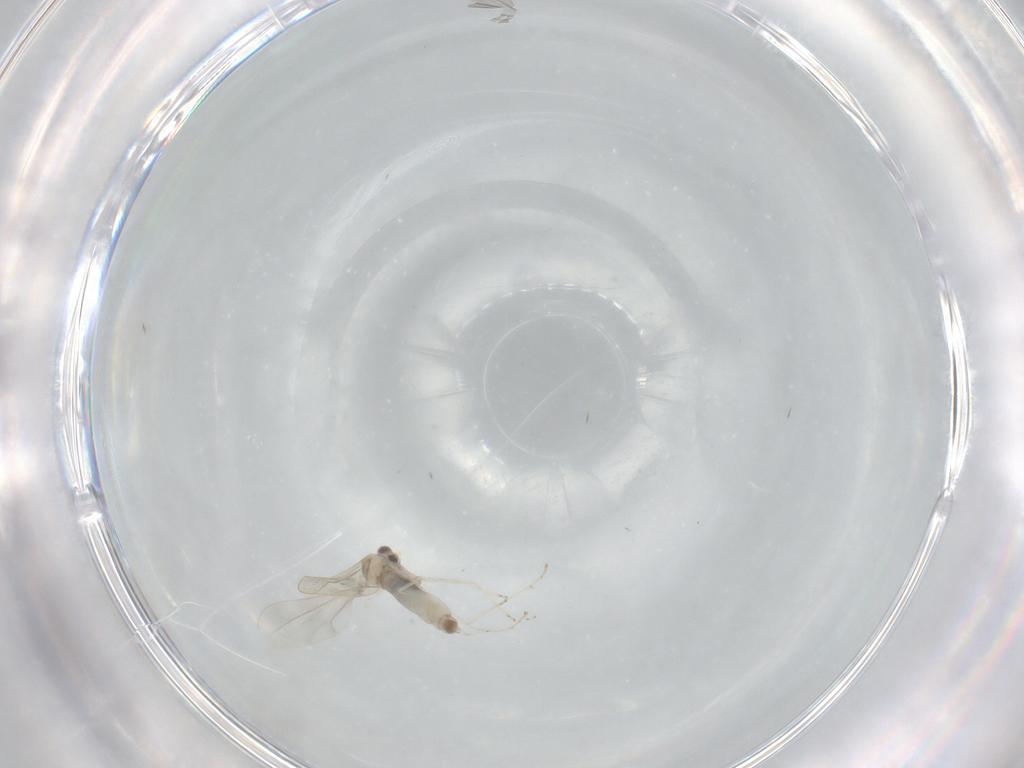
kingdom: Animalia
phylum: Arthropoda
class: Insecta
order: Diptera
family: Cecidomyiidae
